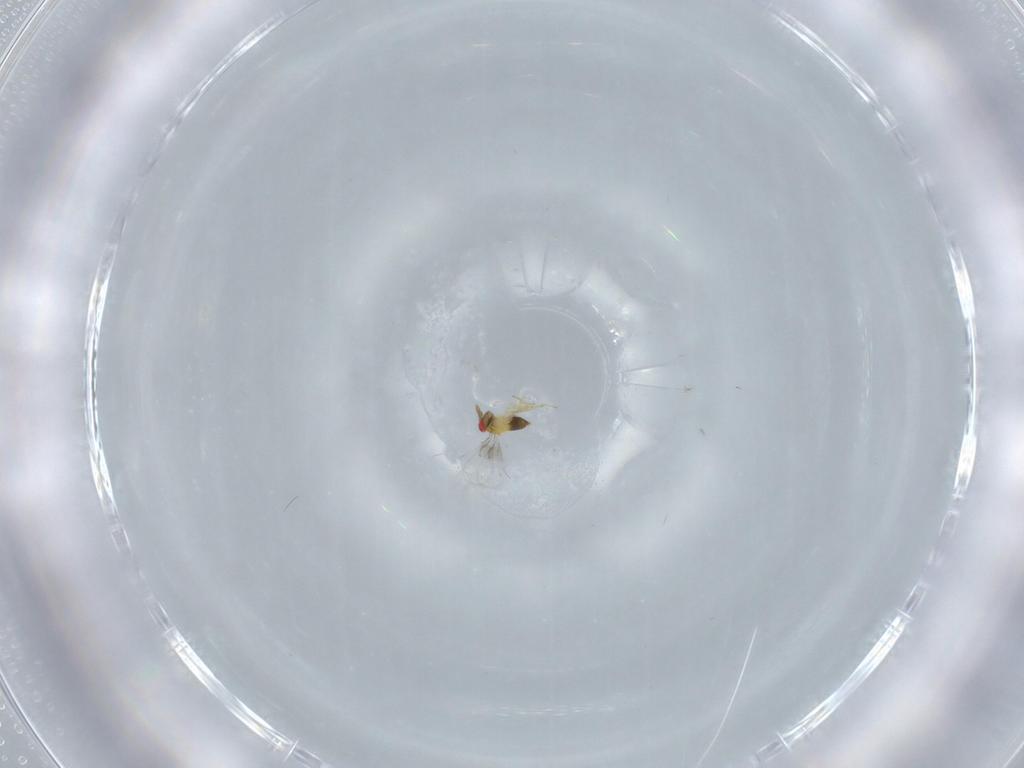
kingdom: Animalia
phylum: Arthropoda
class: Insecta
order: Hymenoptera
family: Trichogrammatidae
